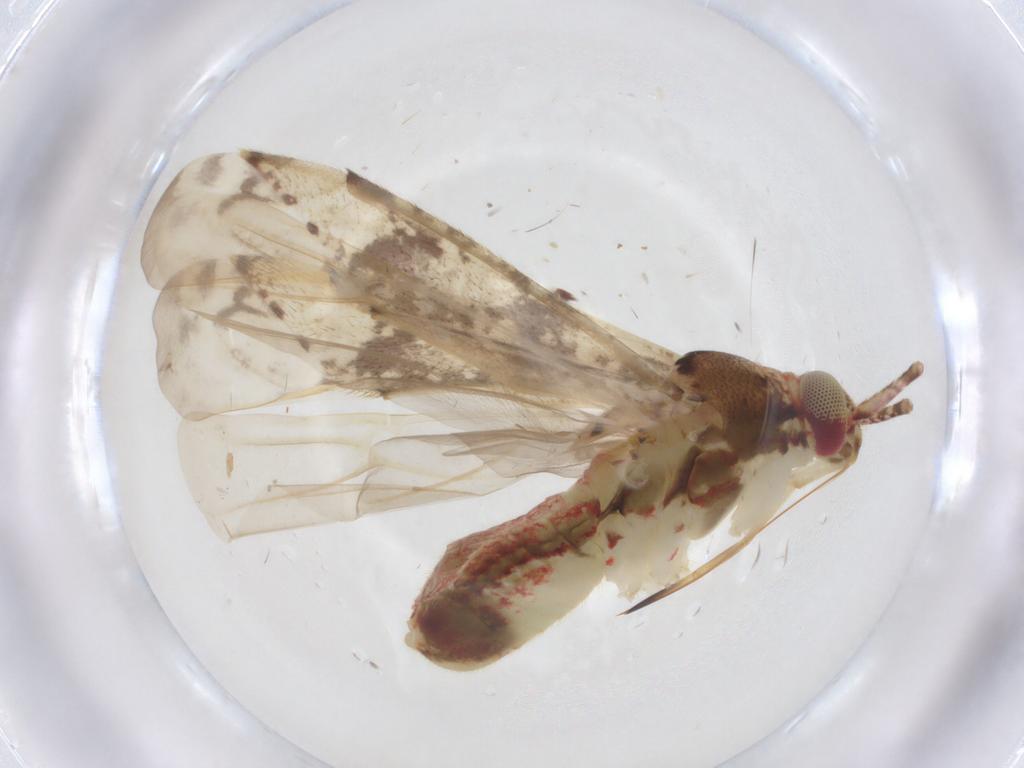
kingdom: Animalia
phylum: Arthropoda
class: Insecta
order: Hemiptera
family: Miridae
